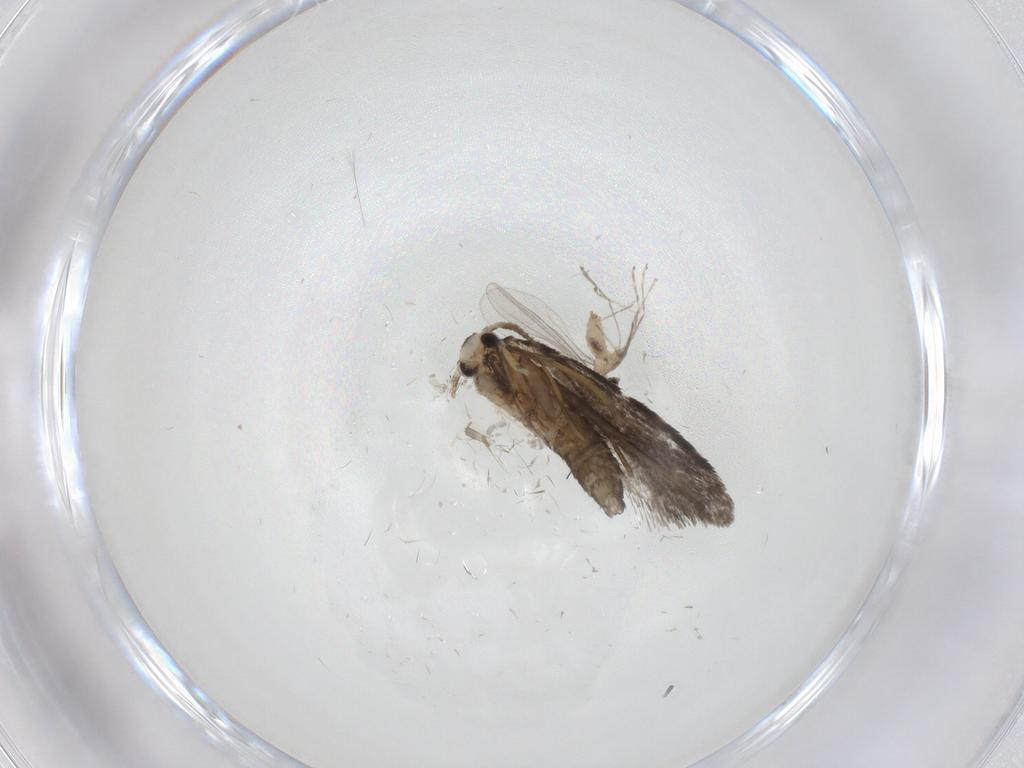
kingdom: Animalia
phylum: Arthropoda
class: Insecta
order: Lepidoptera
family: Psychidae
